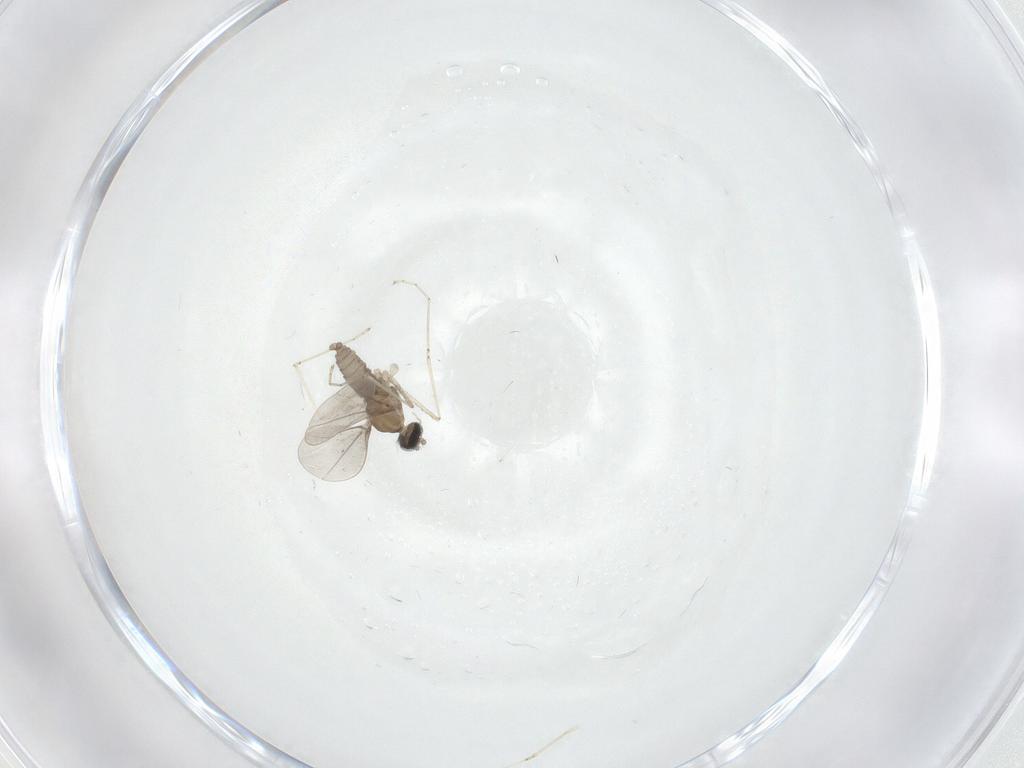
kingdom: Animalia
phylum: Arthropoda
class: Insecta
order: Diptera
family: Cecidomyiidae
